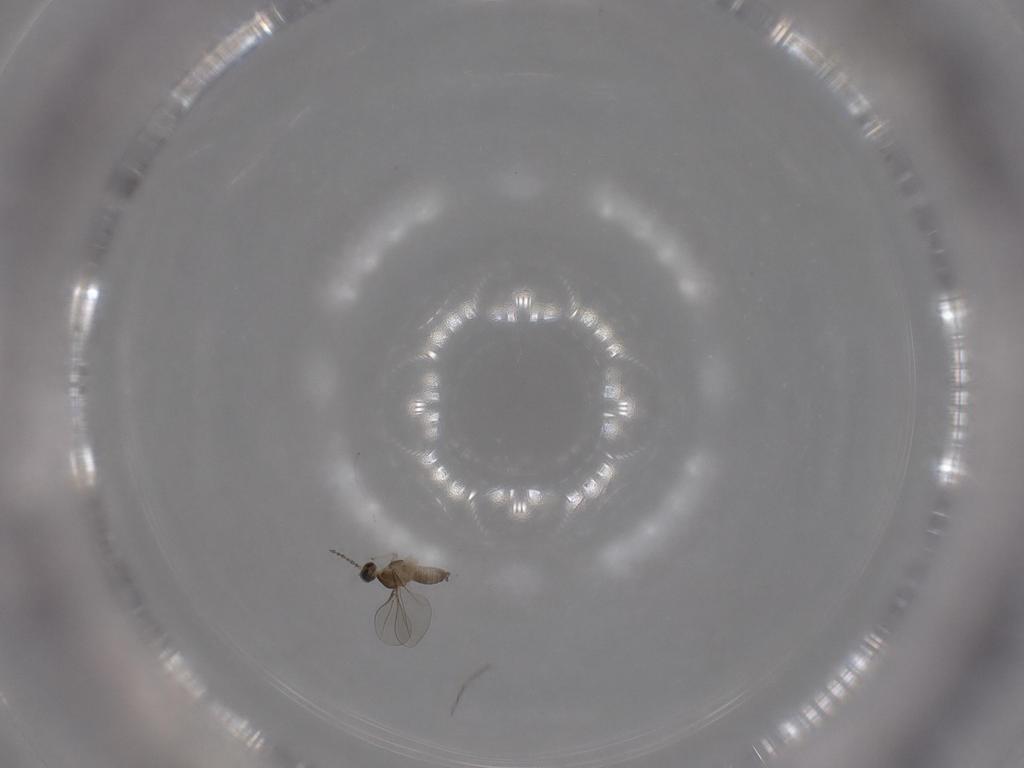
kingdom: Animalia
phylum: Arthropoda
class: Insecta
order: Diptera
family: Cecidomyiidae
